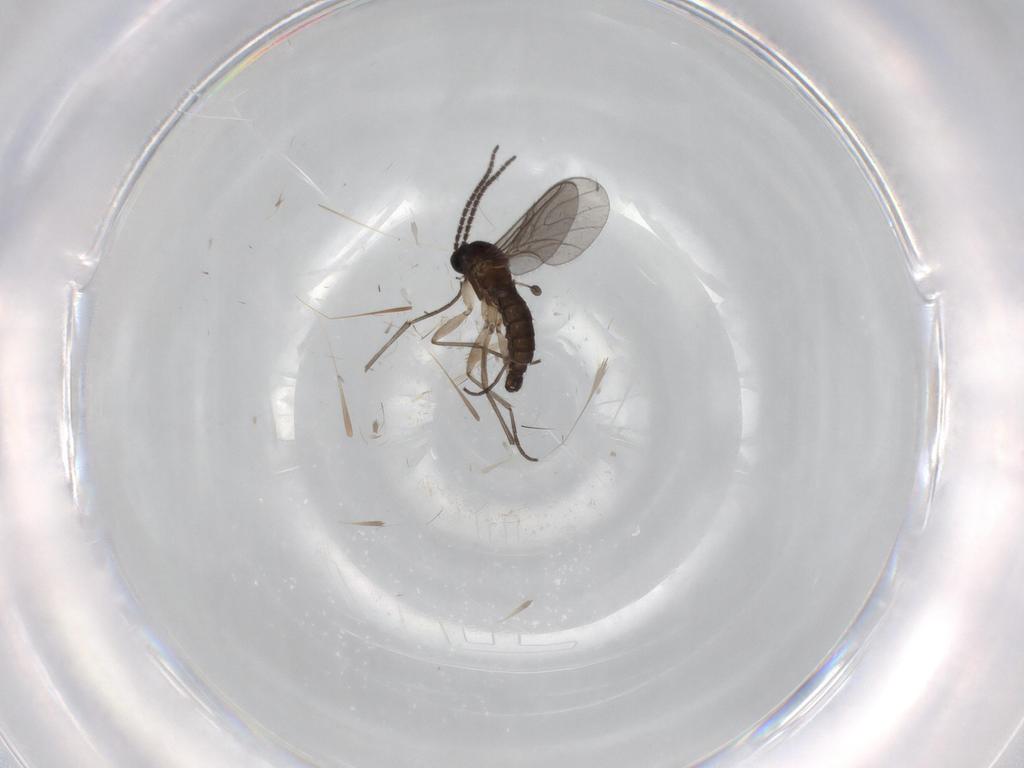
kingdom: Animalia
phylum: Arthropoda
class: Insecta
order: Diptera
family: Sciaridae
